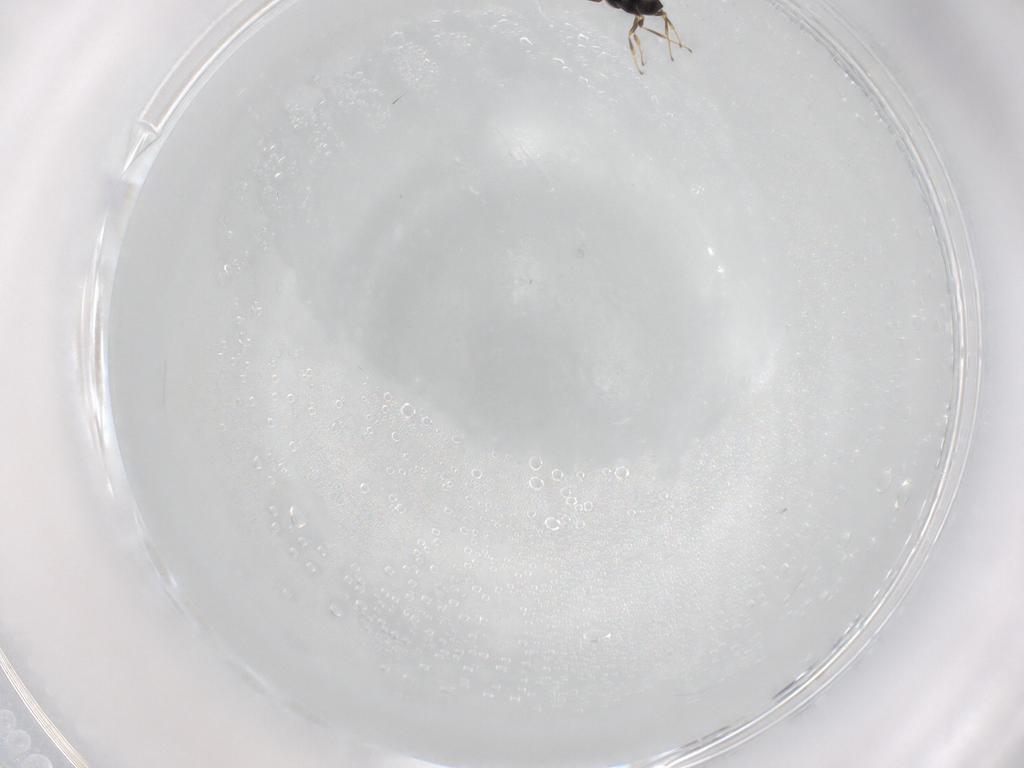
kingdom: Animalia
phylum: Arthropoda
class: Insecta
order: Hymenoptera
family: Scelionidae
